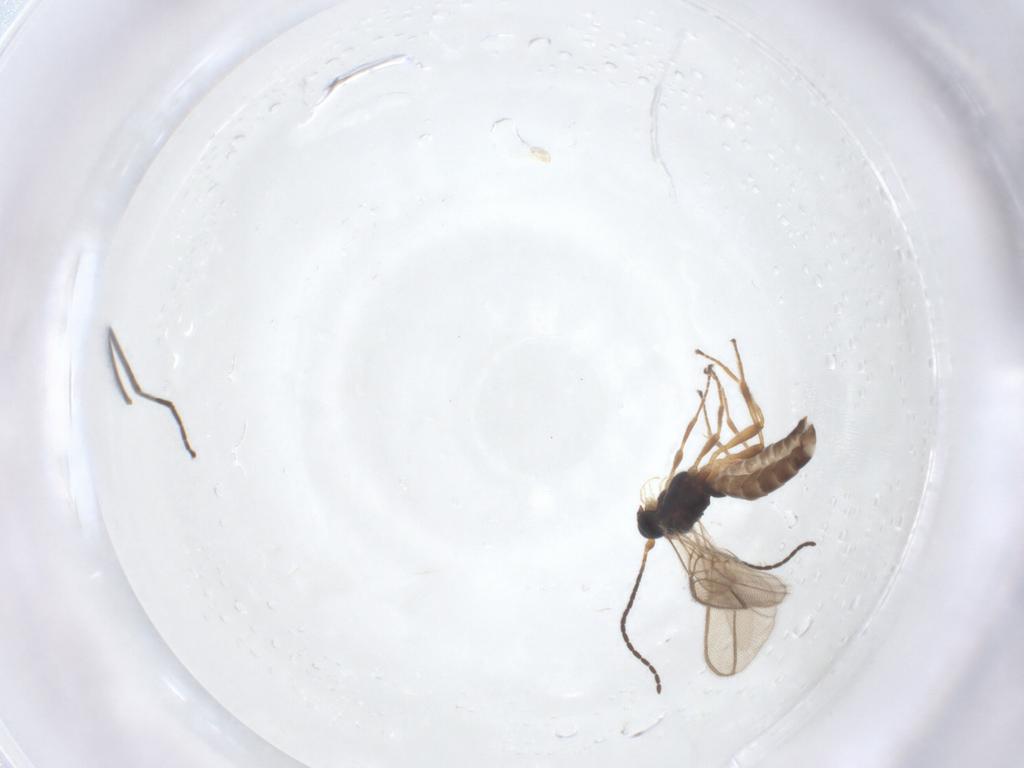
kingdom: Animalia
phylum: Arthropoda
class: Insecta
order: Hymenoptera
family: Braconidae
